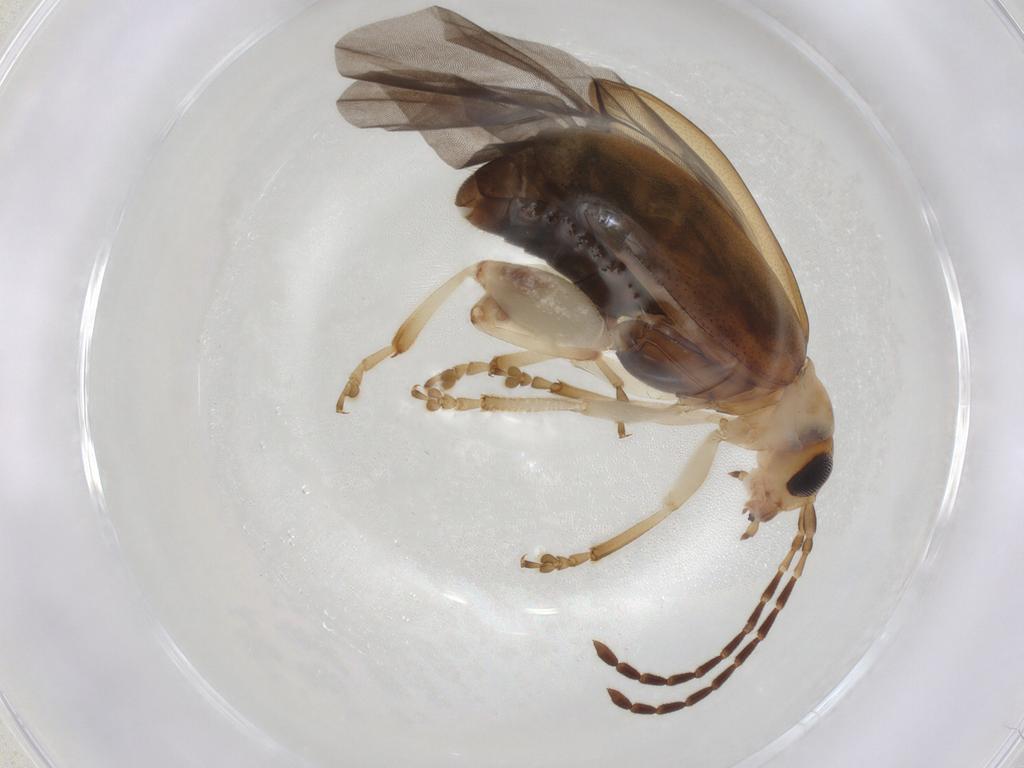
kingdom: Animalia
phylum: Arthropoda
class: Insecta
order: Coleoptera
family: Chrysomelidae
